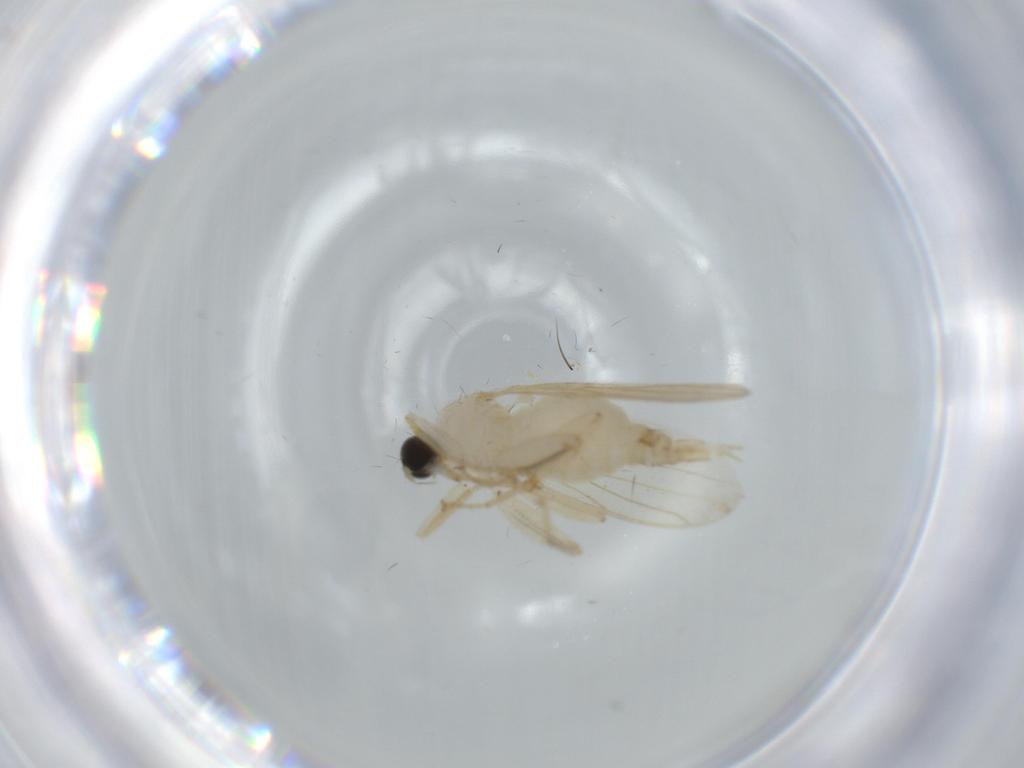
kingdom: Animalia
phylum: Arthropoda
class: Insecta
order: Diptera
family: Hybotidae
